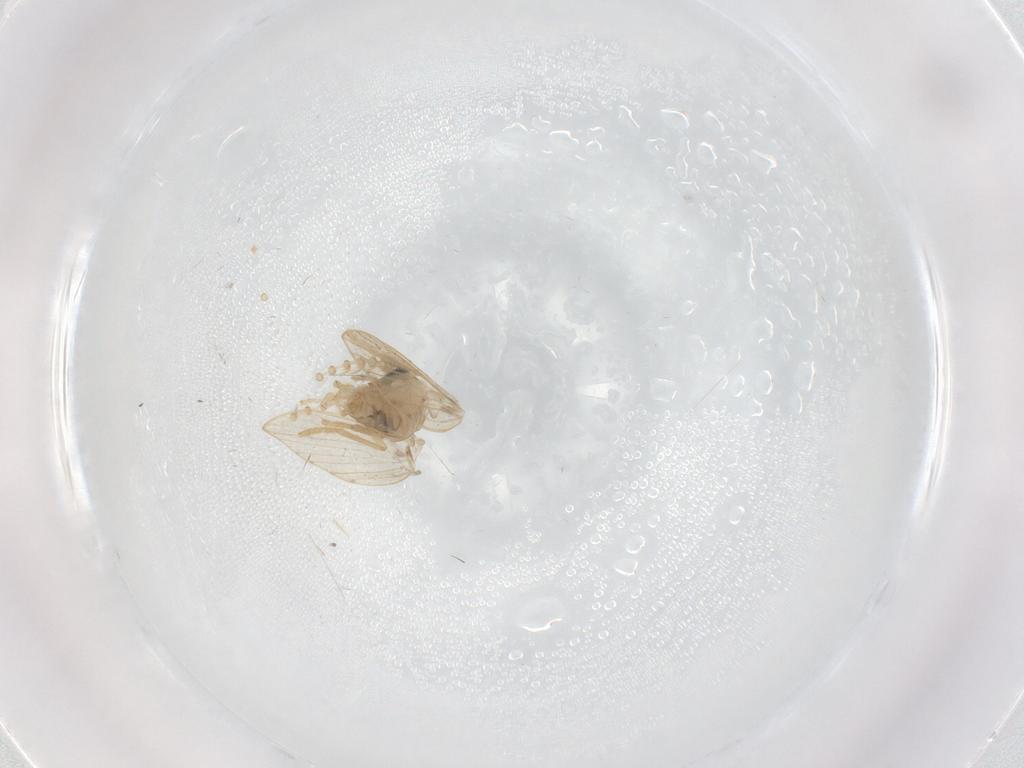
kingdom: Animalia
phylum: Arthropoda
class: Insecta
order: Diptera
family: Psychodidae
